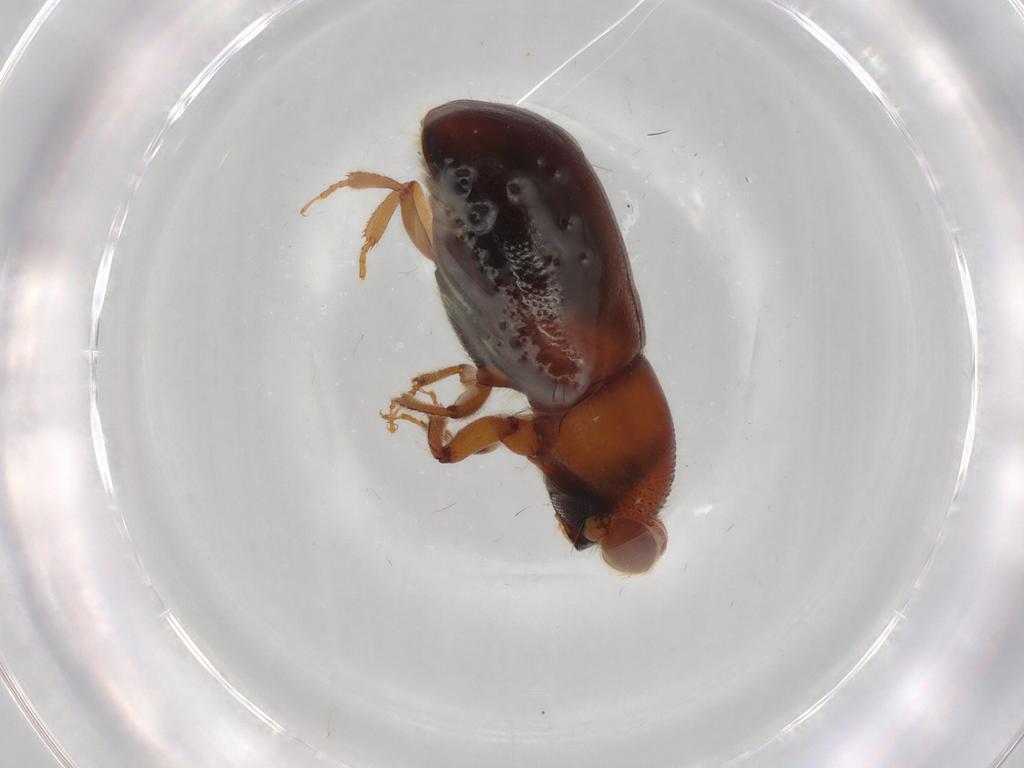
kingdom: Animalia
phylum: Arthropoda
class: Insecta
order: Coleoptera
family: Curculionidae
